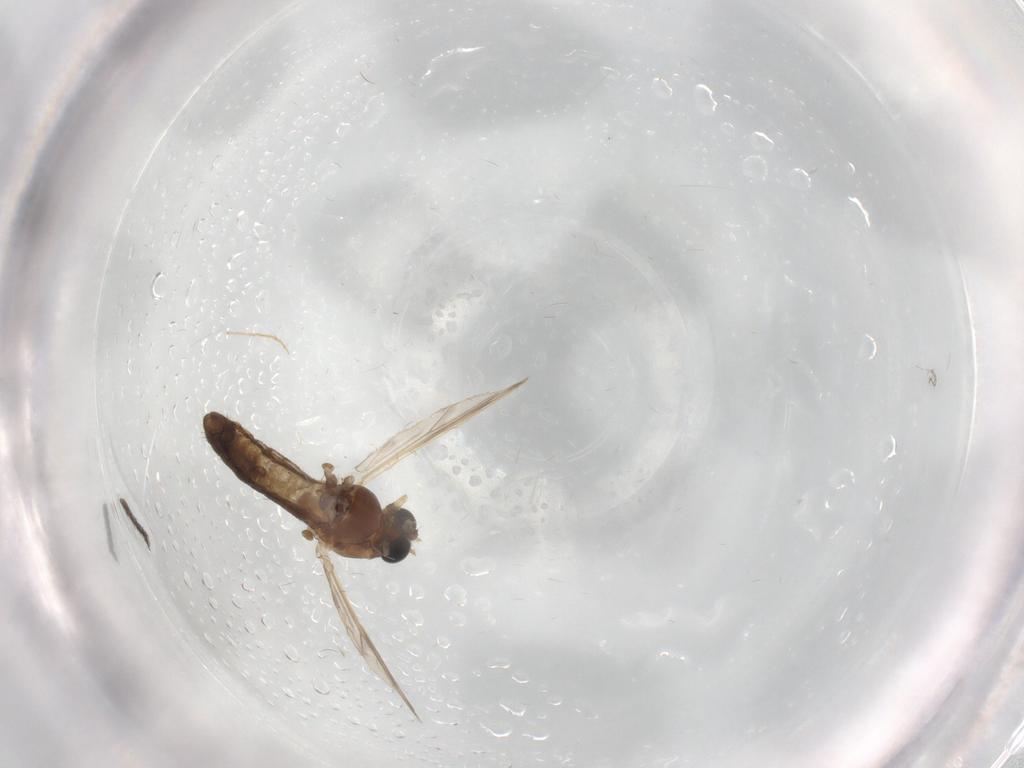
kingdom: Animalia
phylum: Arthropoda
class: Insecta
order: Diptera
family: Chironomidae
